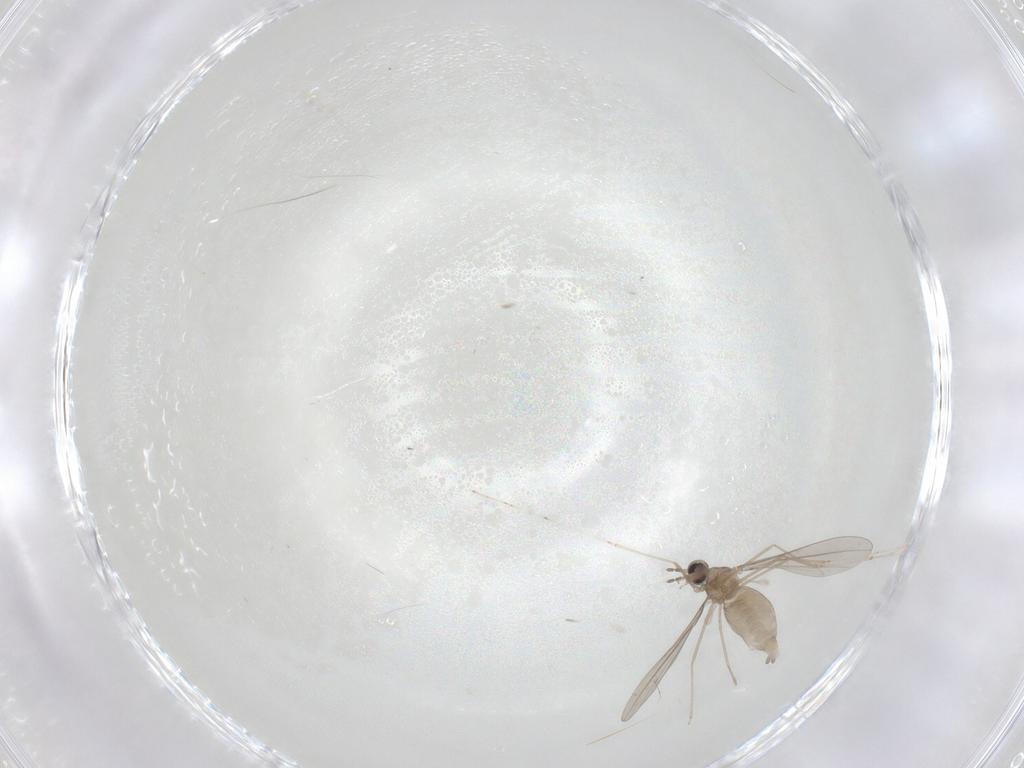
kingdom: Animalia
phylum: Arthropoda
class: Insecta
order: Diptera
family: Cecidomyiidae
